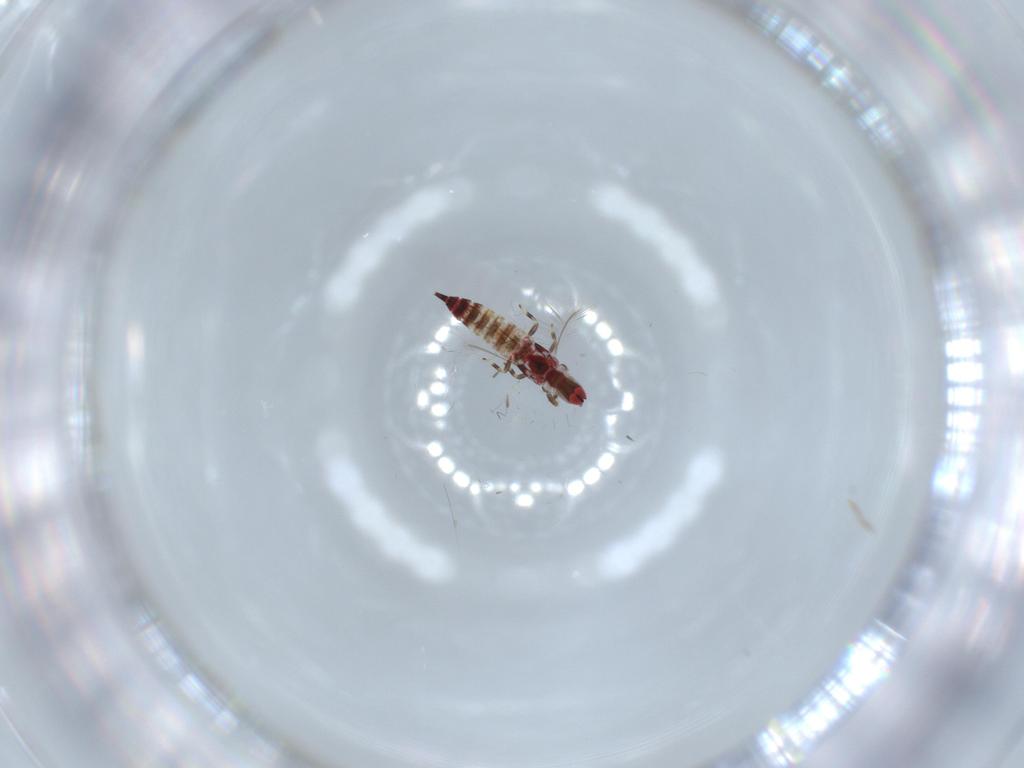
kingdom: Animalia
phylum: Arthropoda
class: Insecta
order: Thysanoptera
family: Phlaeothripidae
